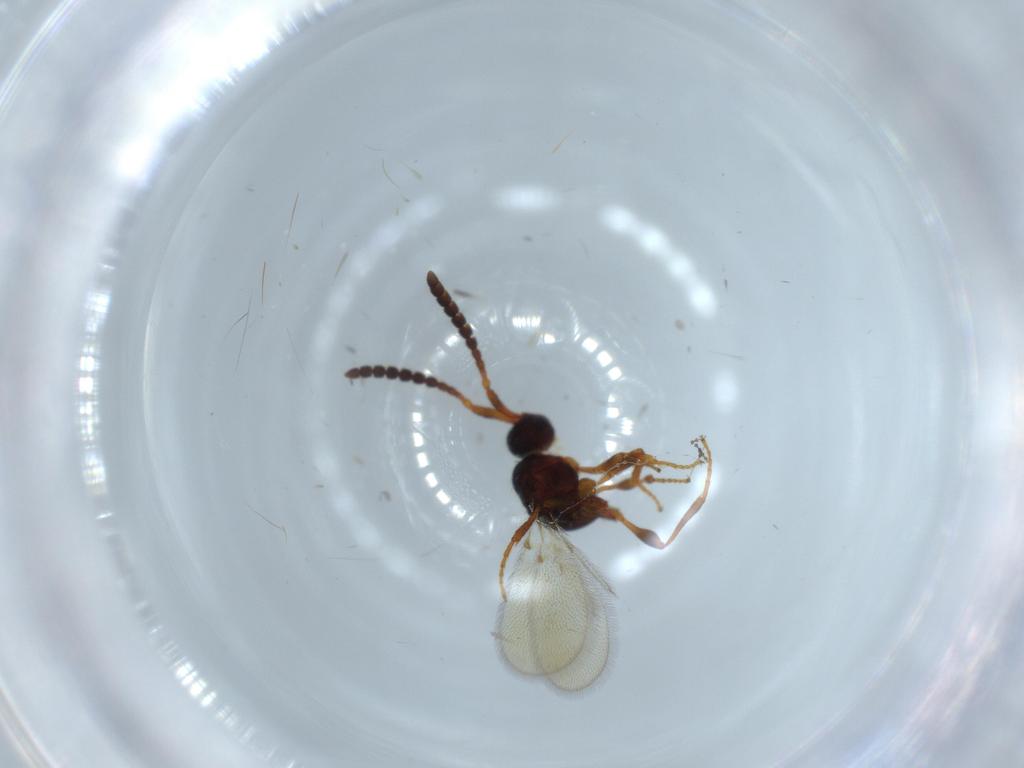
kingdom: Animalia
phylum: Arthropoda
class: Insecta
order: Hymenoptera
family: Diapriidae
